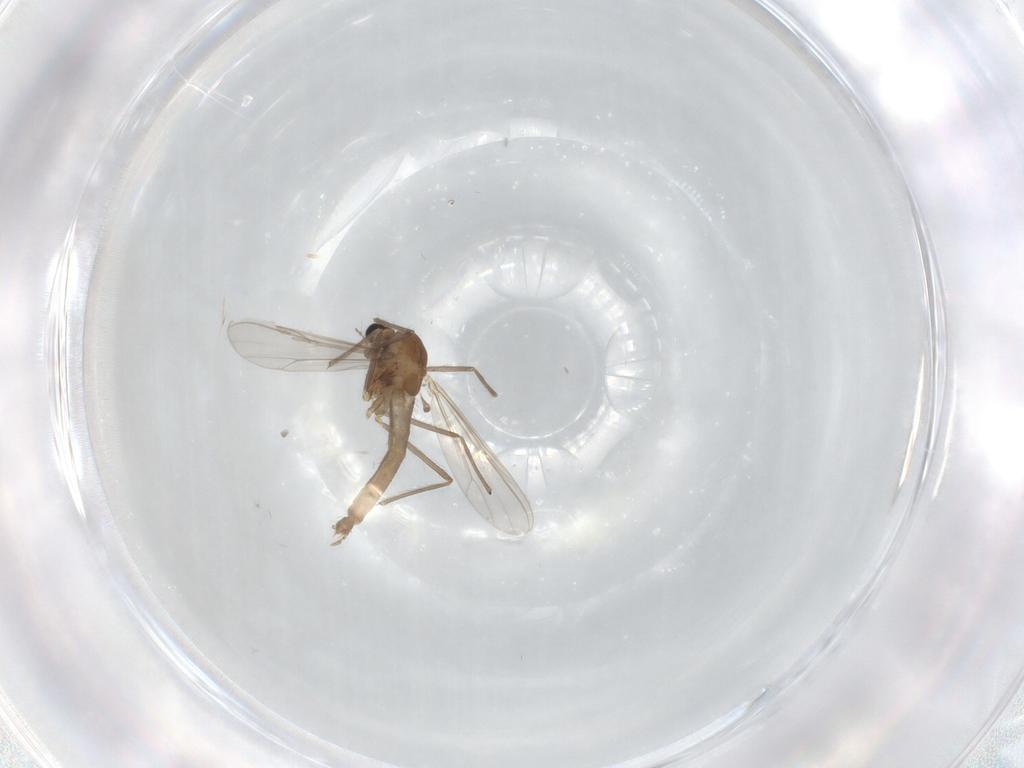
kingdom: Animalia
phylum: Arthropoda
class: Insecta
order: Diptera
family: Chironomidae
